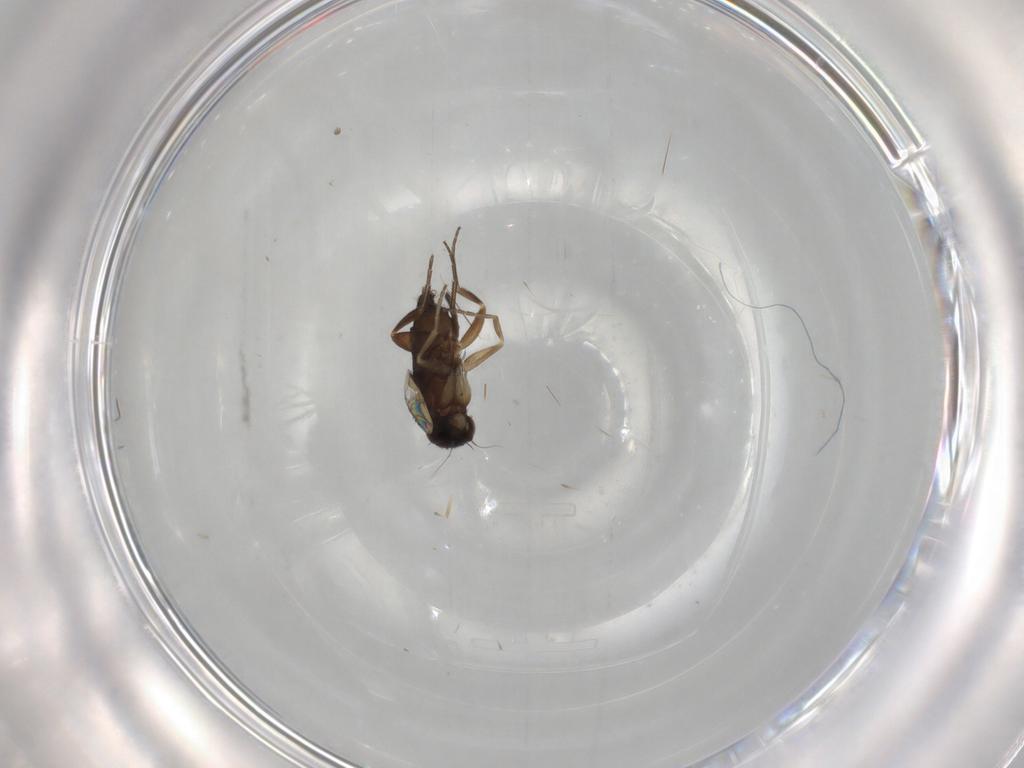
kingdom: Animalia
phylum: Arthropoda
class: Insecta
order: Diptera
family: Phoridae
